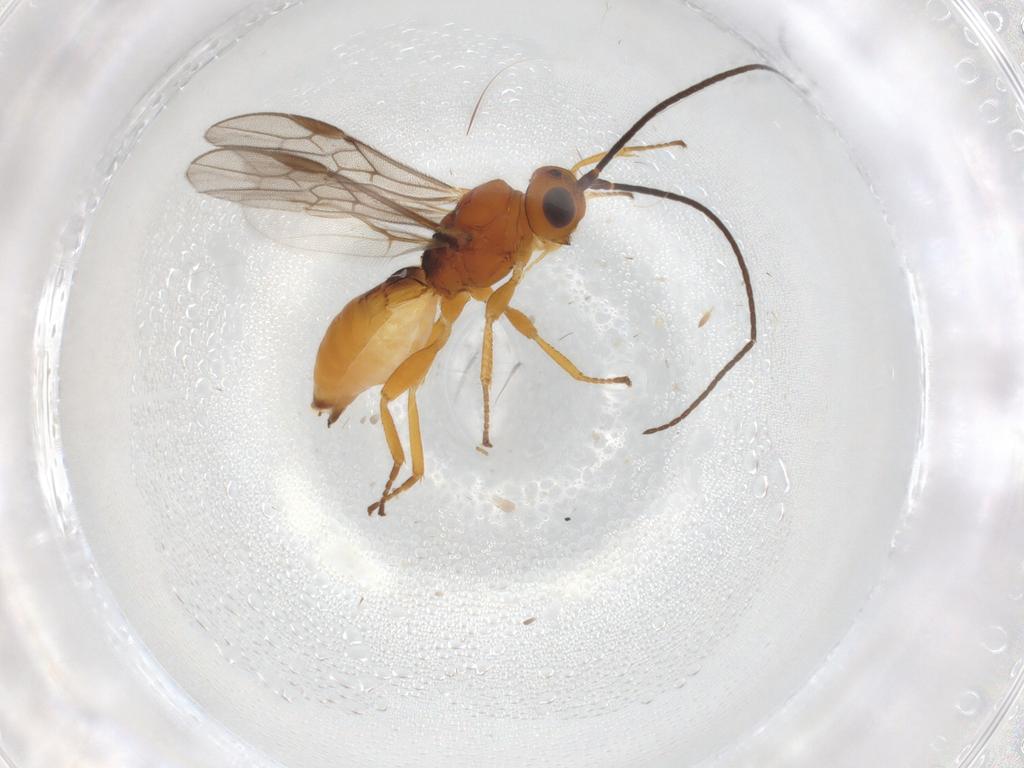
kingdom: Animalia
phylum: Arthropoda
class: Insecta
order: Hymenoptera
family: Braconidae
